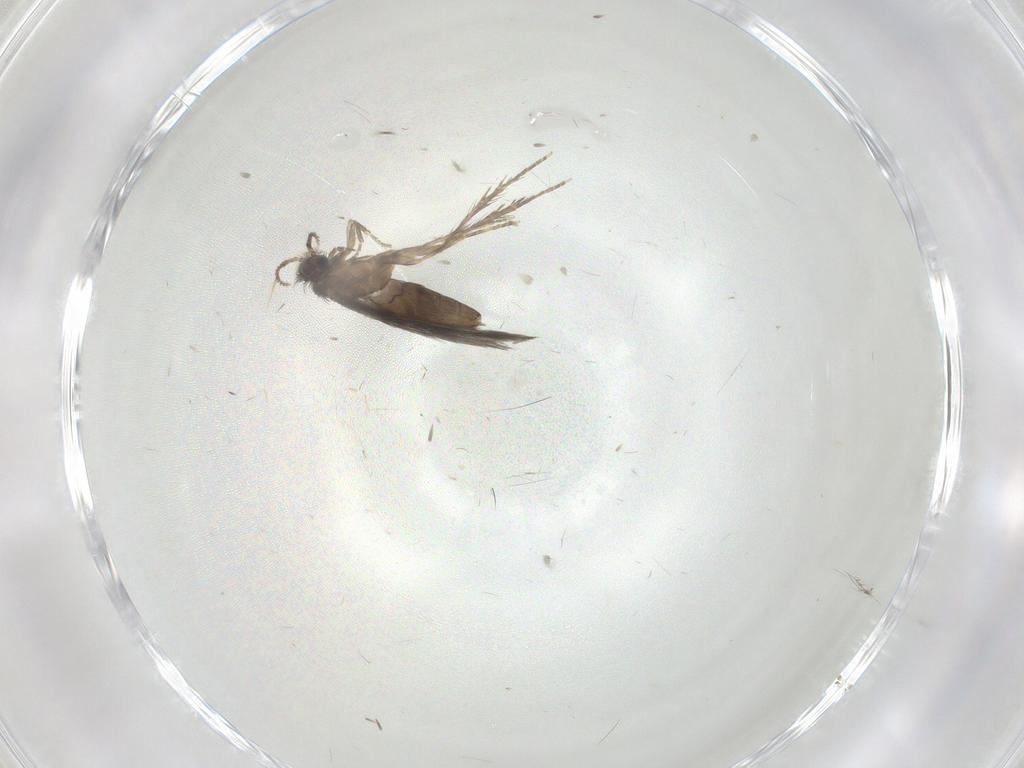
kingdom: Animalia
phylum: Arthropoda
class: Insecta
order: Trichoptera
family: Hydroptilidae
